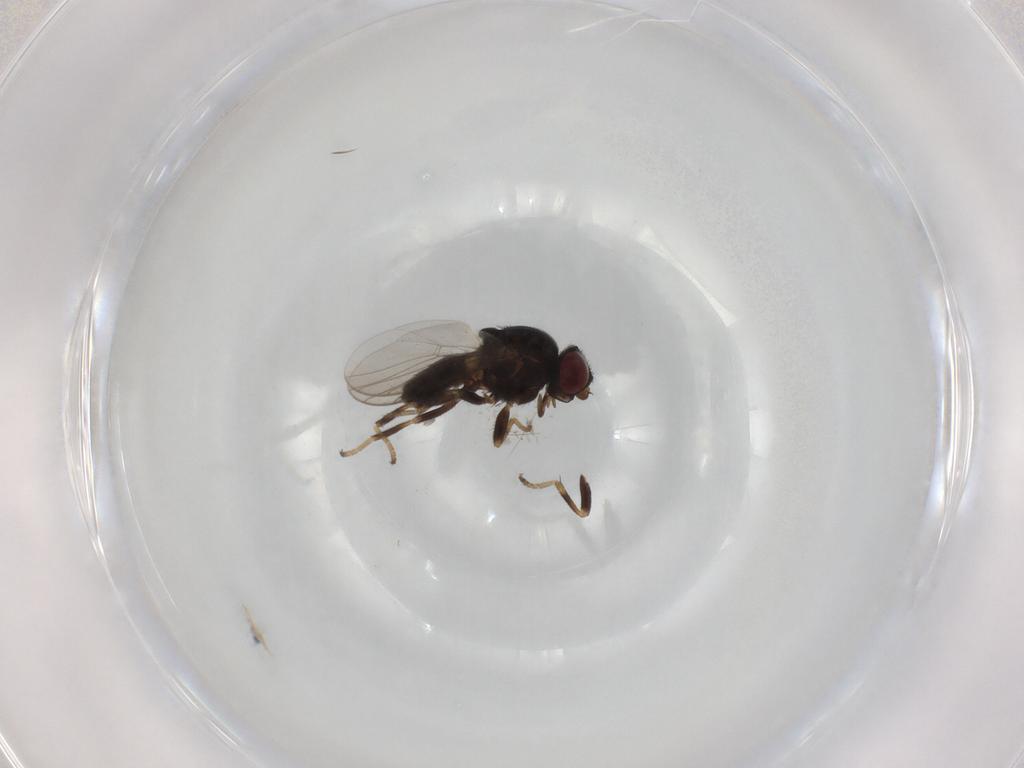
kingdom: Animalia
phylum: Arthropoda
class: Insecta
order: Diptera
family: Chloropidae
